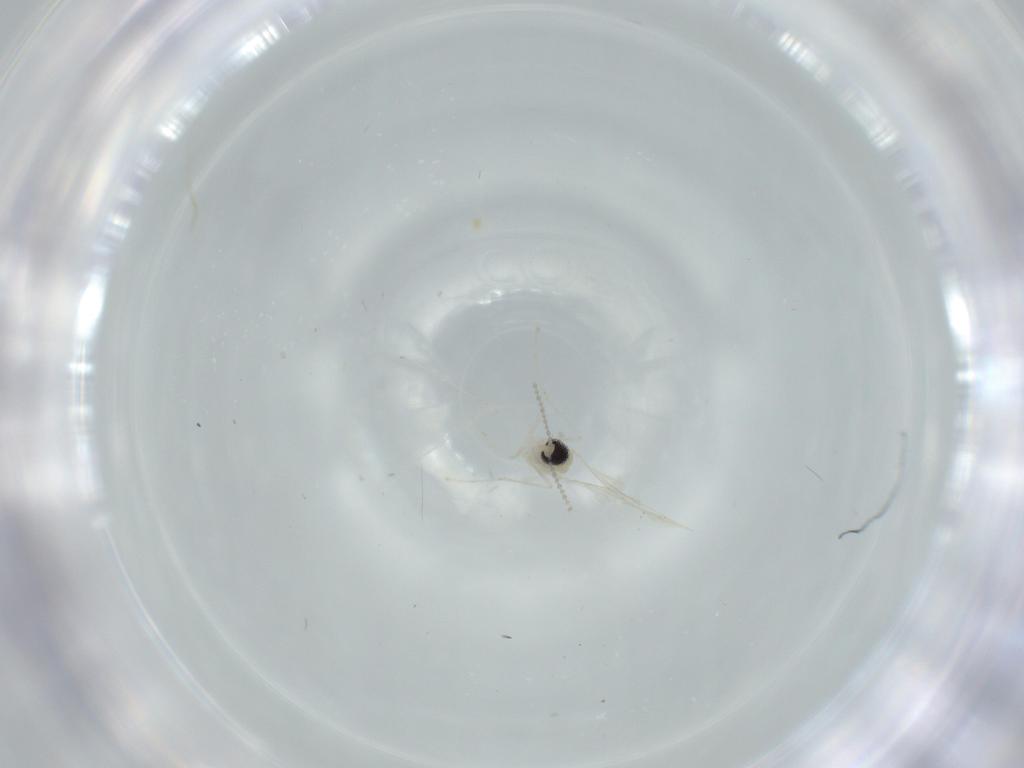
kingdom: Animalia
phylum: Arthropoda
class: Insecta
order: Diptera
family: Cecidomyiidae
